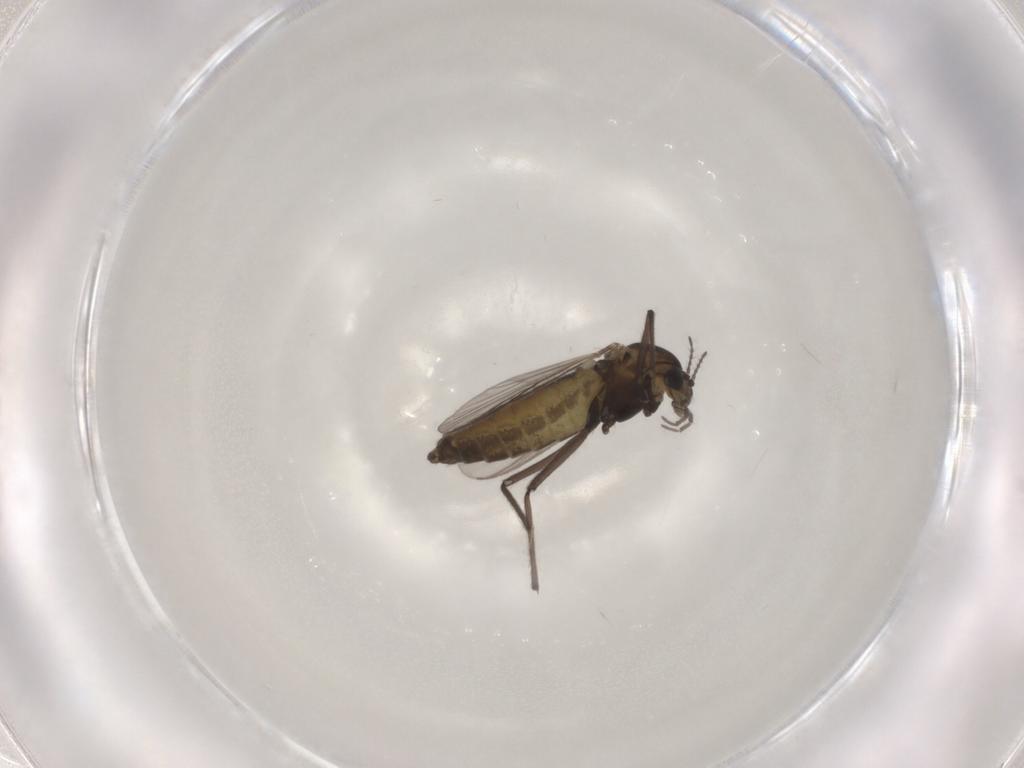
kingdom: Animalia
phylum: Arthropoda
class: Insecta
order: Diptera
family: Chironomidae
